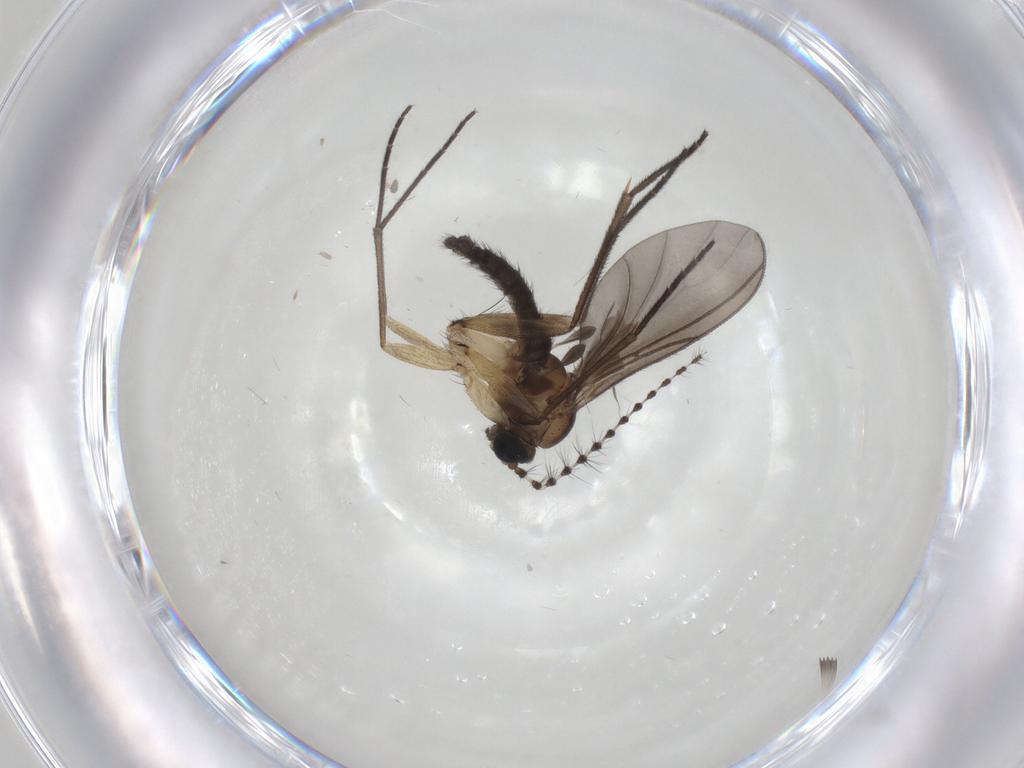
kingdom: Animalia
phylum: Arthropoda
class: Insecta
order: Diptera
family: Sciaridae
